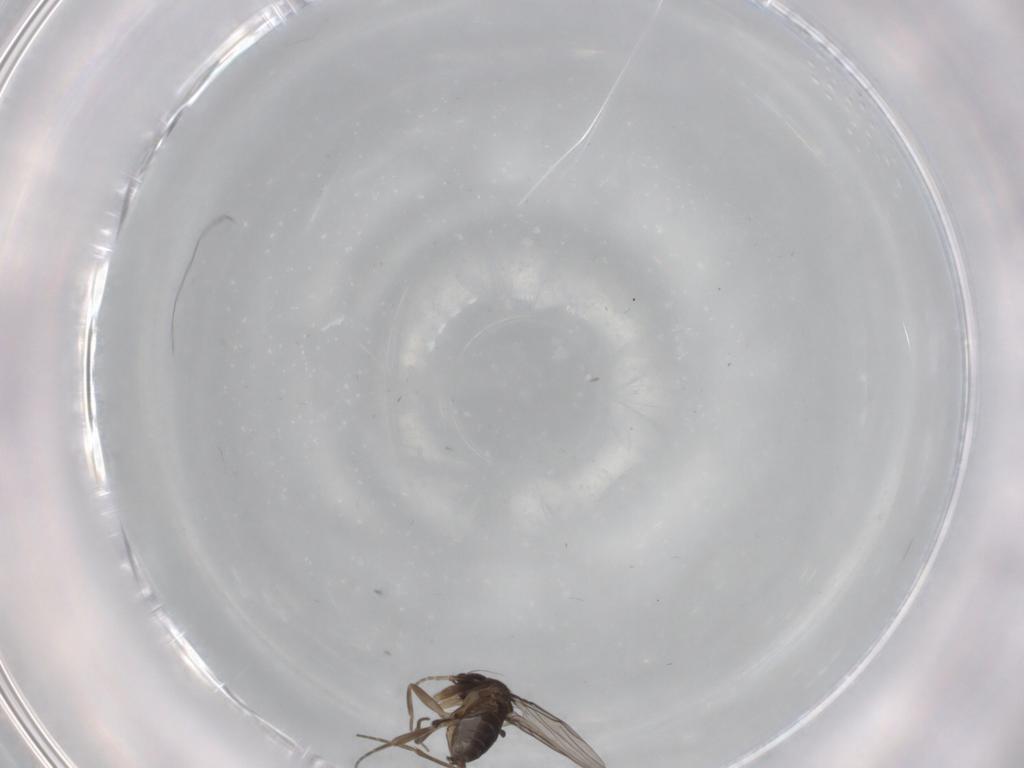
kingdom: Animalia
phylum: Arthropoda
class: Insecta
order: Diptera
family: Phoridae
